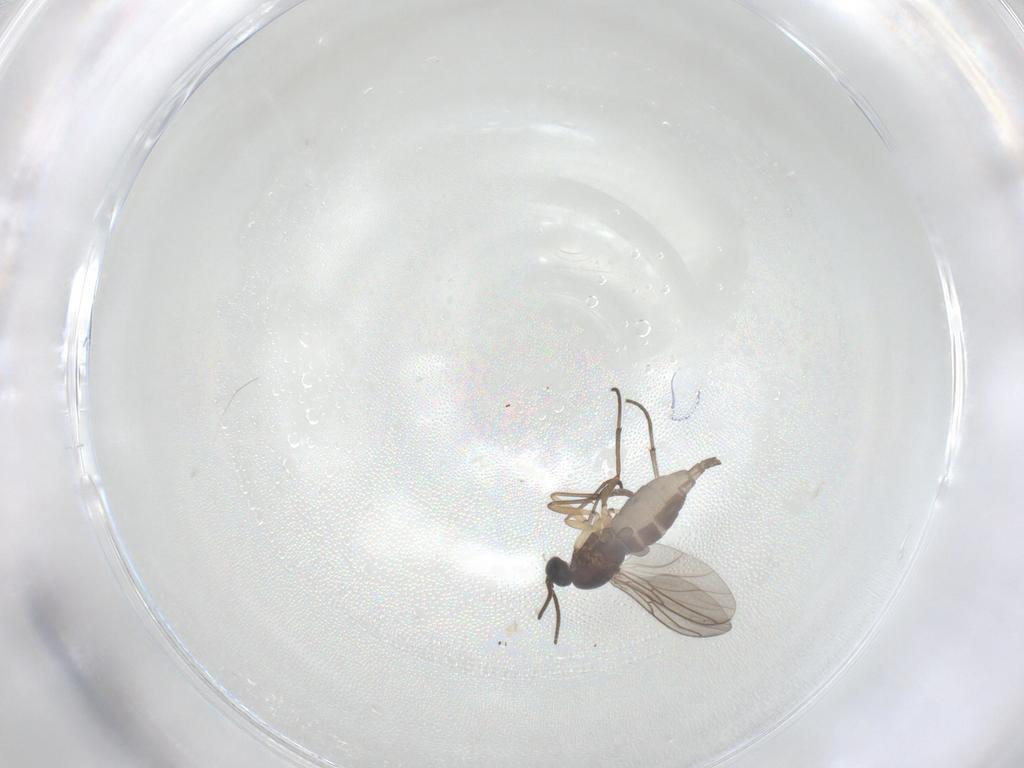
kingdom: Animalia
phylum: Arthropoda
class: Insecta
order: Diptera
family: Sciaridae
